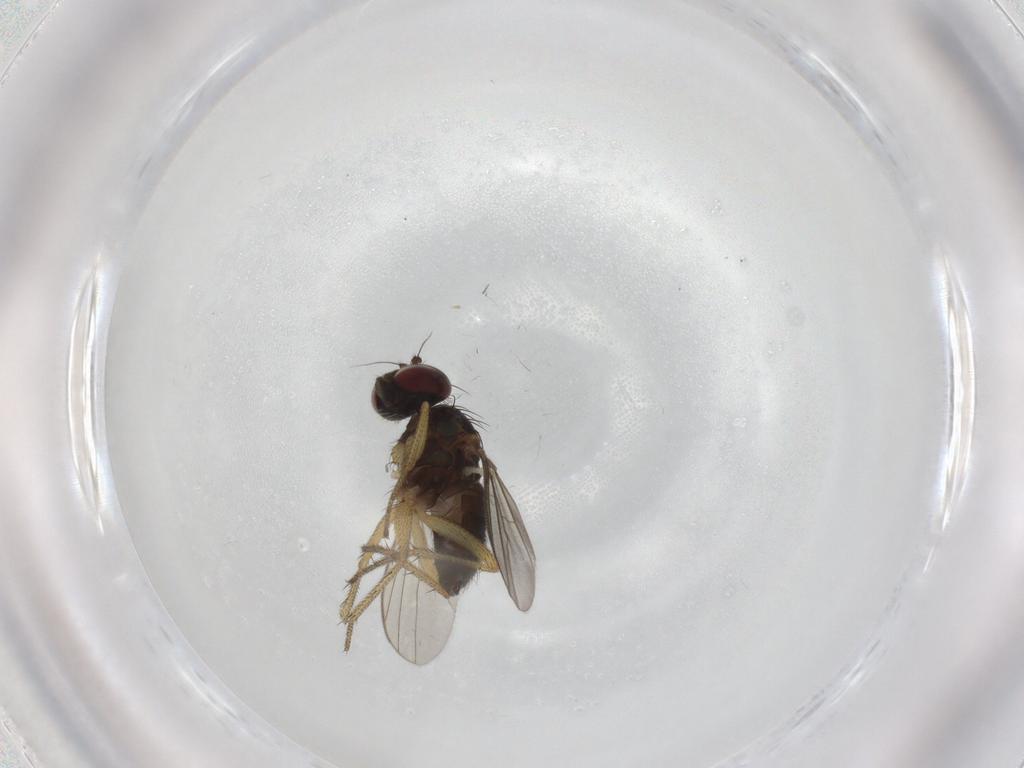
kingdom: Animalia
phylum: Arthropoda
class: Insecta
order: Diptera
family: Dolichopodidae
